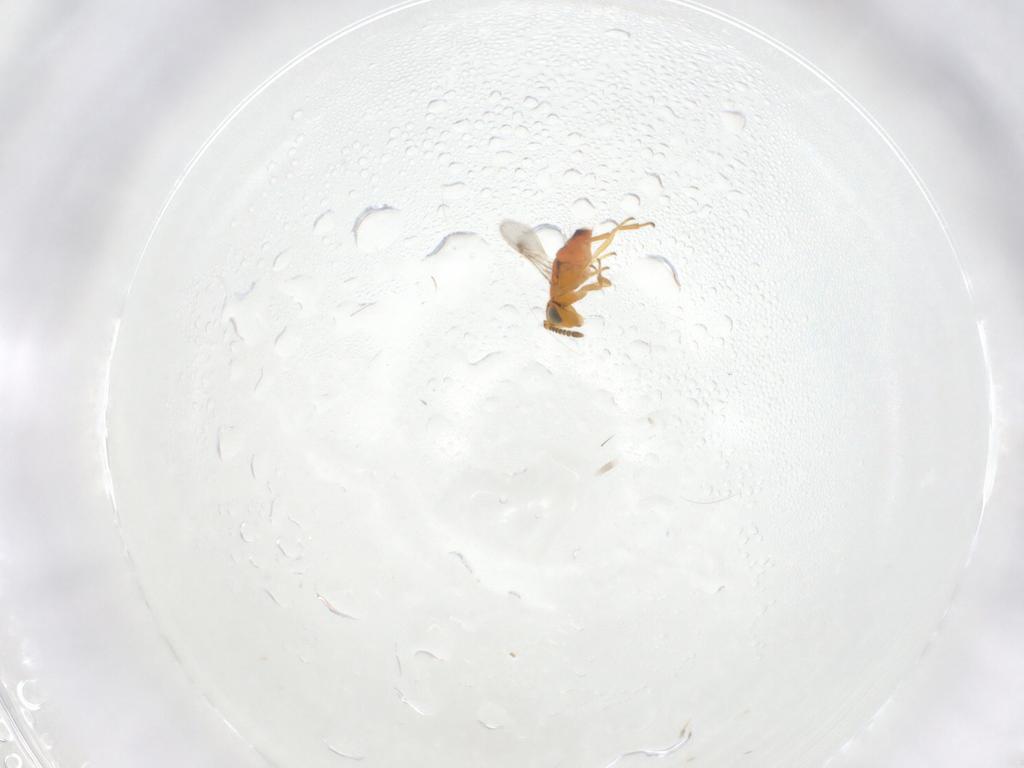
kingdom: Animalia
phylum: Arthropoda
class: Insecta
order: Hymenoptera
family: Encyrtidae
